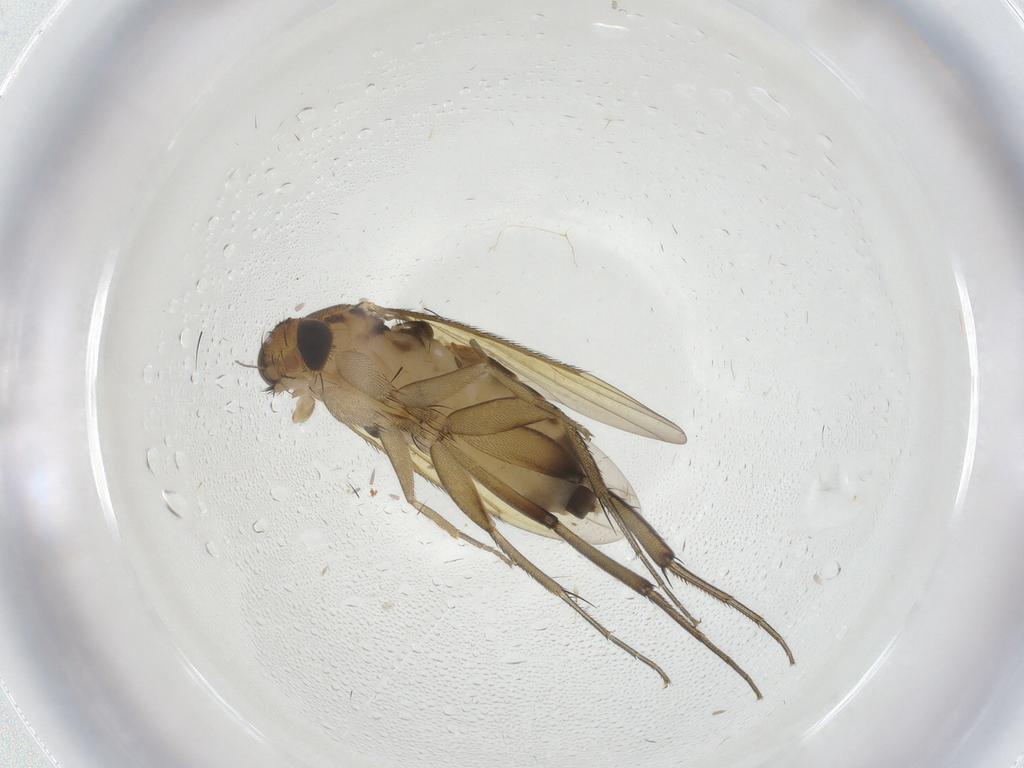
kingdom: Animalia
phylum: Arthropoda
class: Insecta
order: Diptera
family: Phoridae
